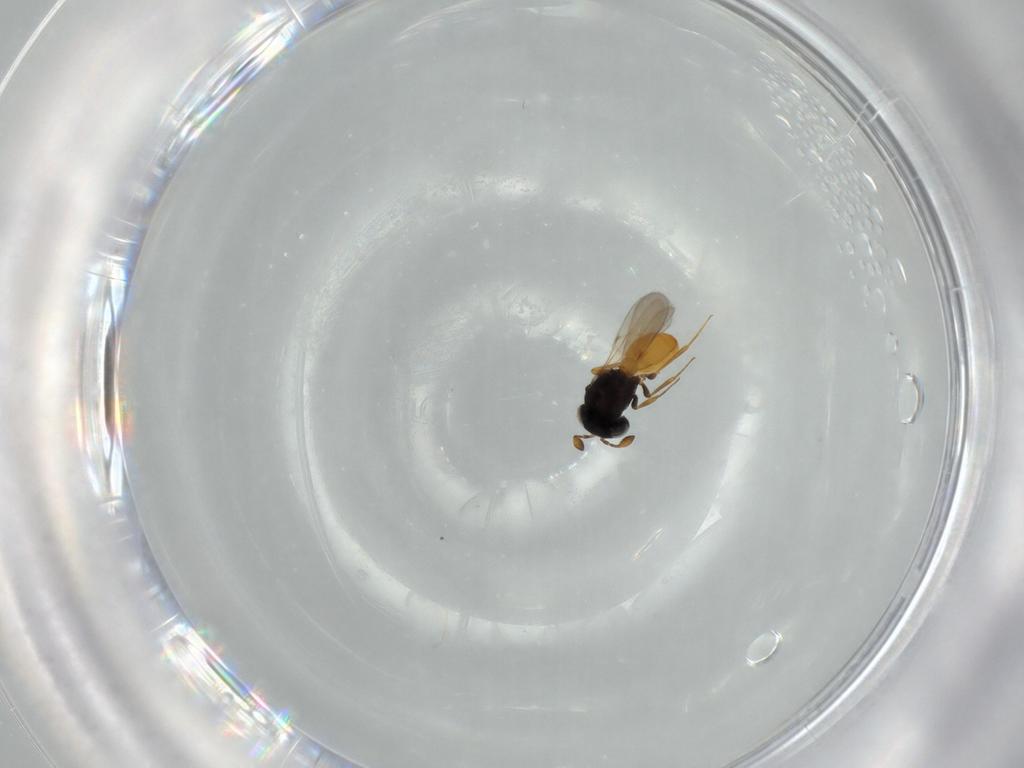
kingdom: Animalia
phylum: Arthropoda
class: Insecta
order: Hymenoptera
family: Scelionidae
